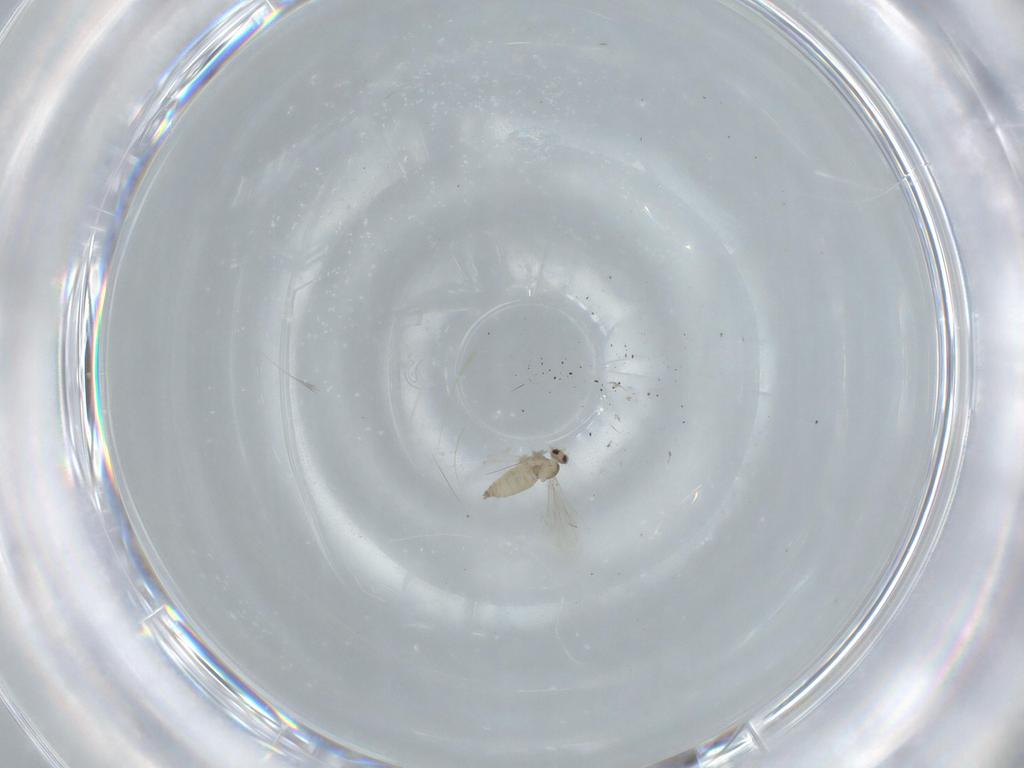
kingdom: Animalia
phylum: Arthropoda
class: Insecta
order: Diptera
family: Cecidomyiidae
